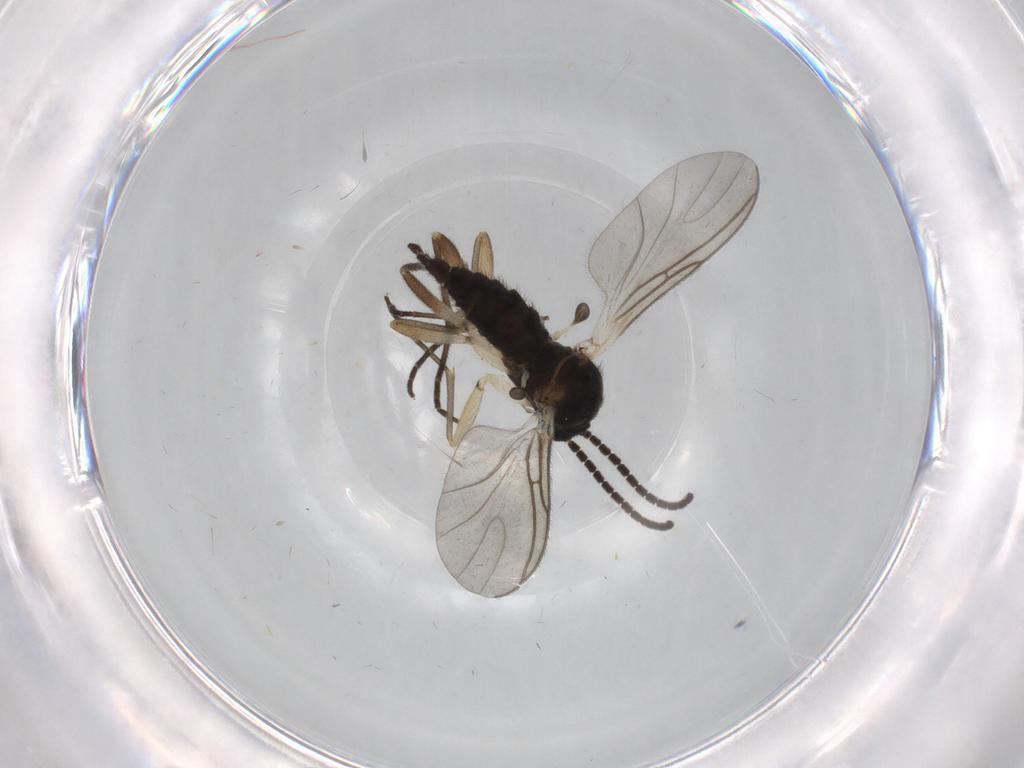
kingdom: Animalia
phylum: Arthropoda
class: Insecta
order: Diptera
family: Sciaridae
